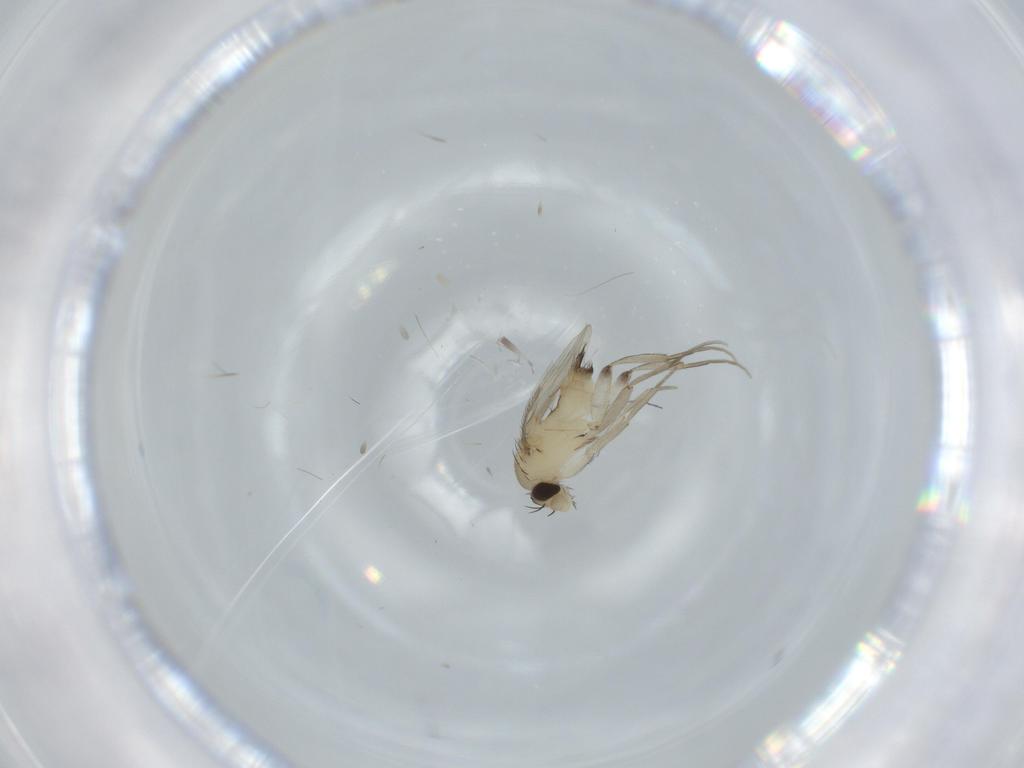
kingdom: Animalia
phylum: Arthropoda
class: Insecta
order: Diptera
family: Phoridae
